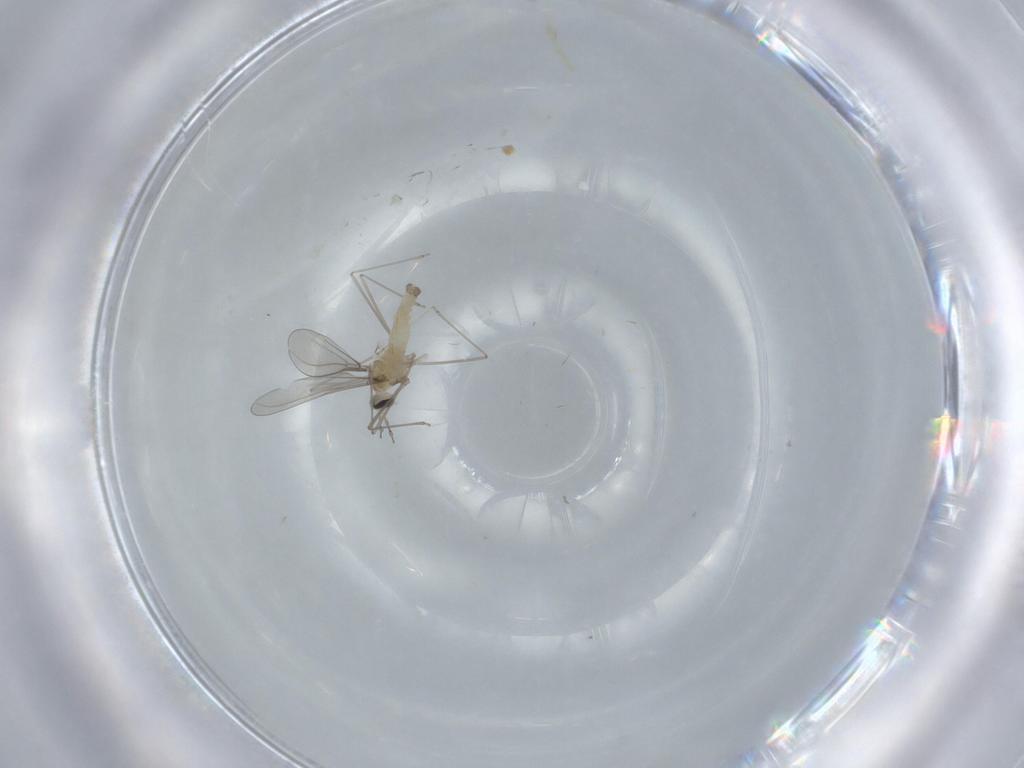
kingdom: Animalia
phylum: Arthropoda
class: Insecta
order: Diptera
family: Cecidomyiidae
